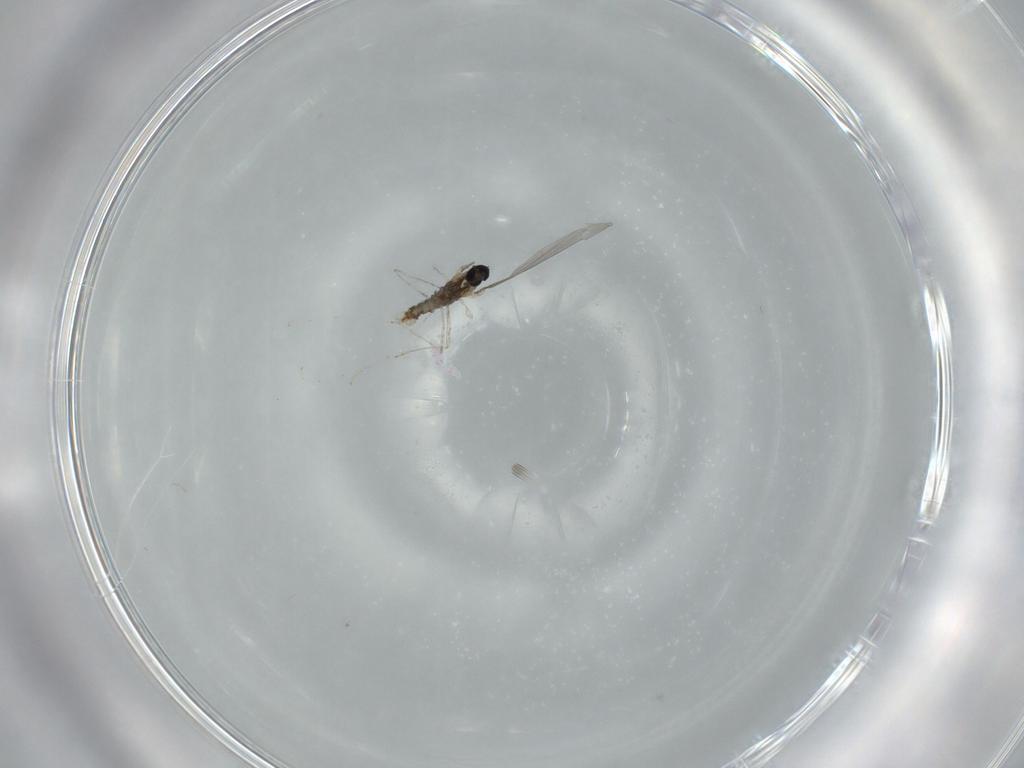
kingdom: Animalia
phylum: Arthropoda
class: Insecta
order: Diptera
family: Cecidomyiidae
